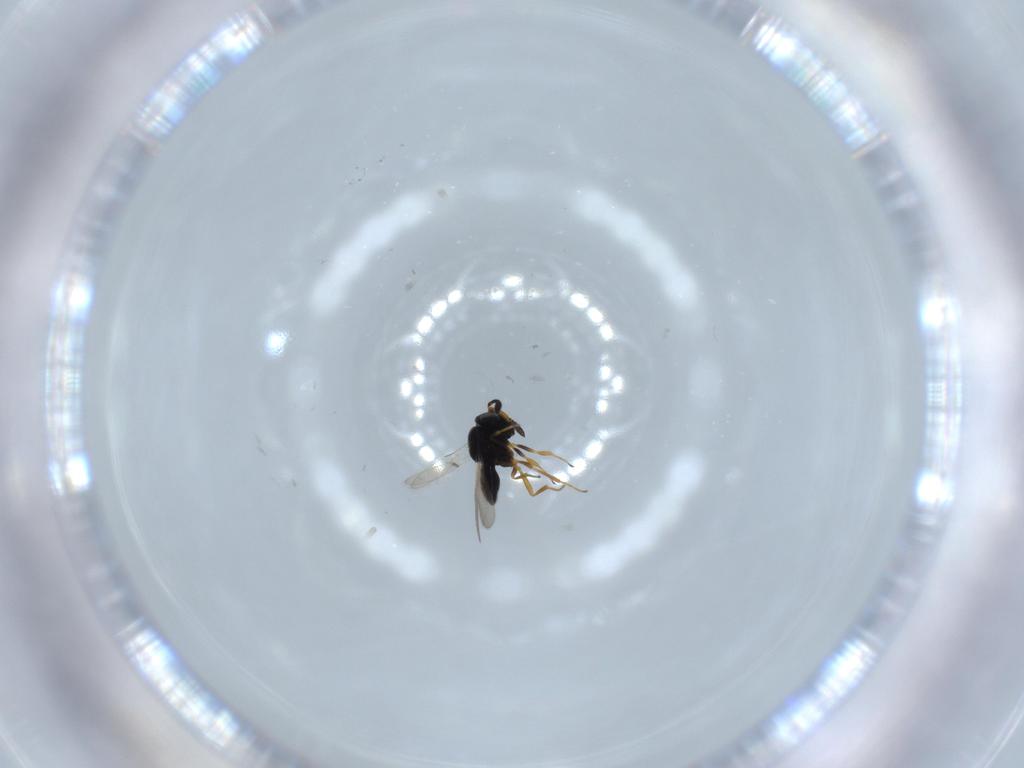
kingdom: Animalia
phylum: Arthropoda
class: Insecta
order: Hymenoptera
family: Scelionidae
